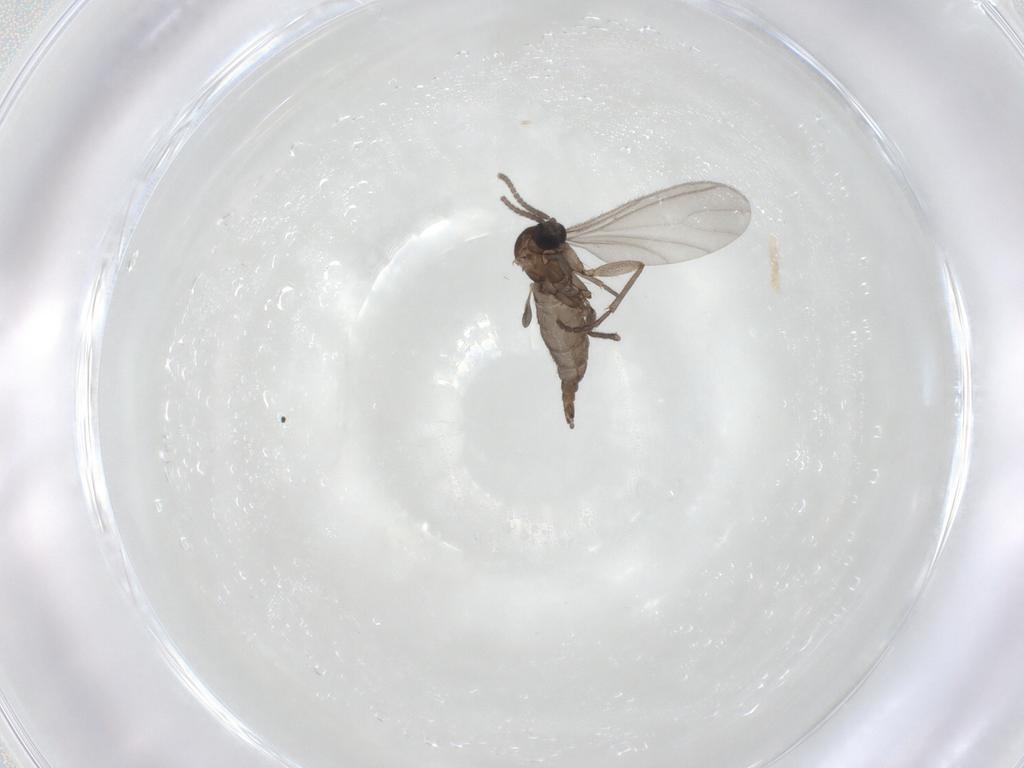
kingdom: Animalia
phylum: Arthropoda
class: Insecta
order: Diptera
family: Sciaridae
